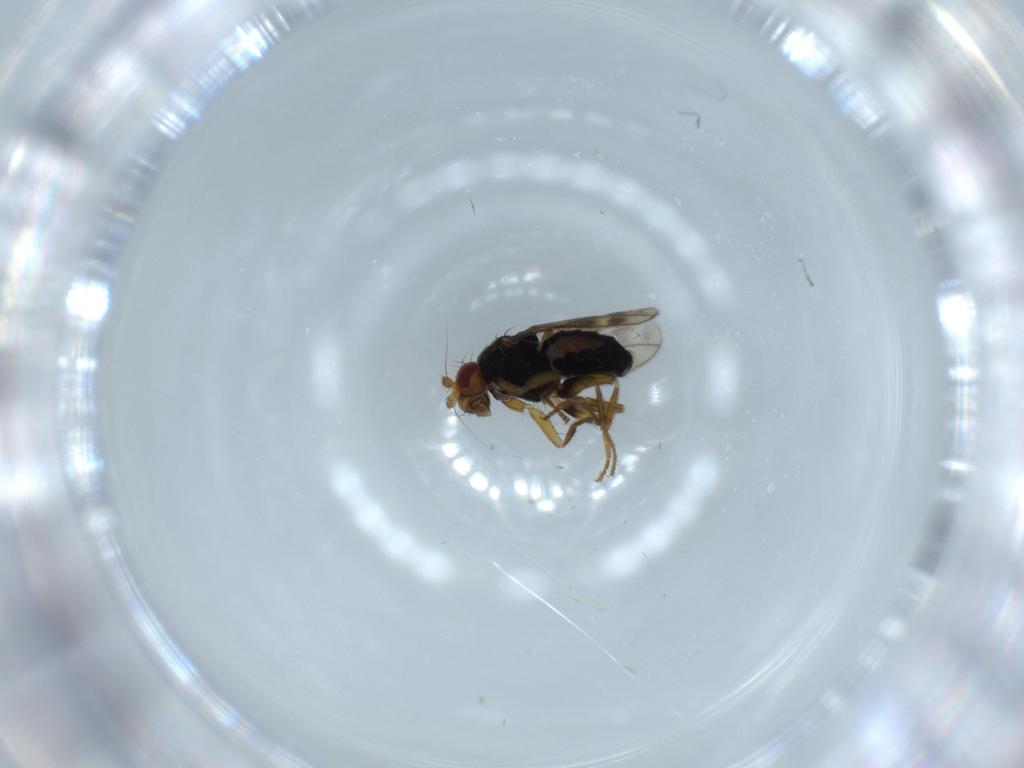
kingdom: Animalia
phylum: Arthropoda
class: Insecta
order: Diptera
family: Sphaeroceridae
